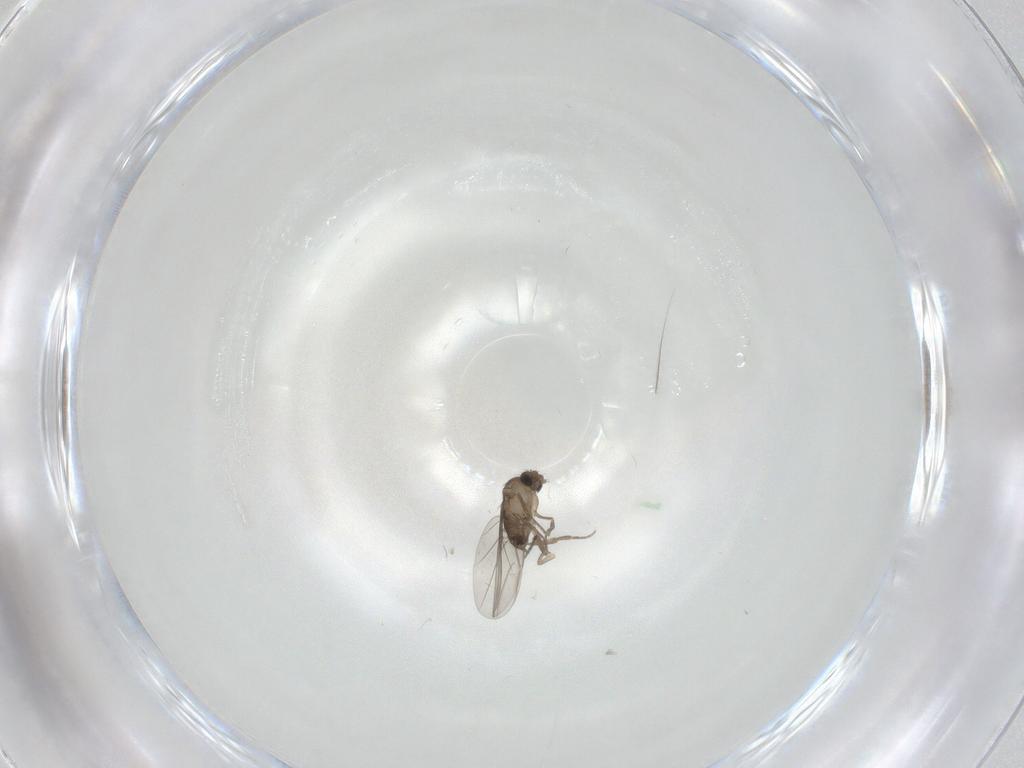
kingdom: Animalia
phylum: Arthropoda
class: Insecta
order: Diptera
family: Phoridae
